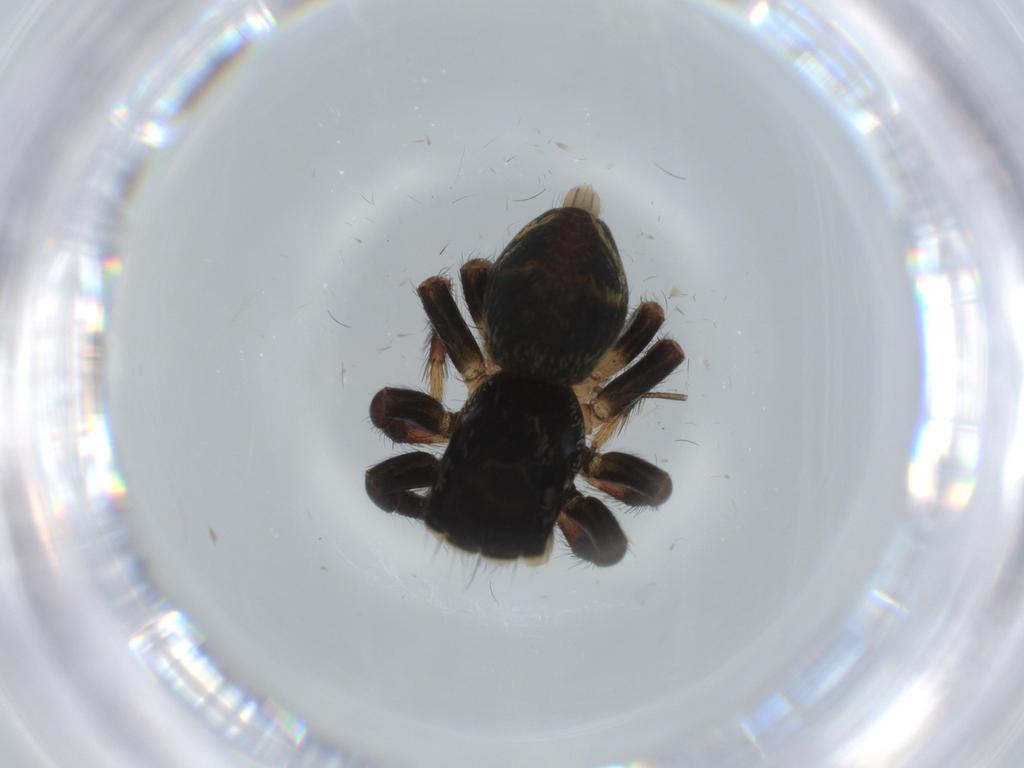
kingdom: Animalia
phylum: Arthropoda
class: Arachnida
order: Araneae
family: Salticidae
